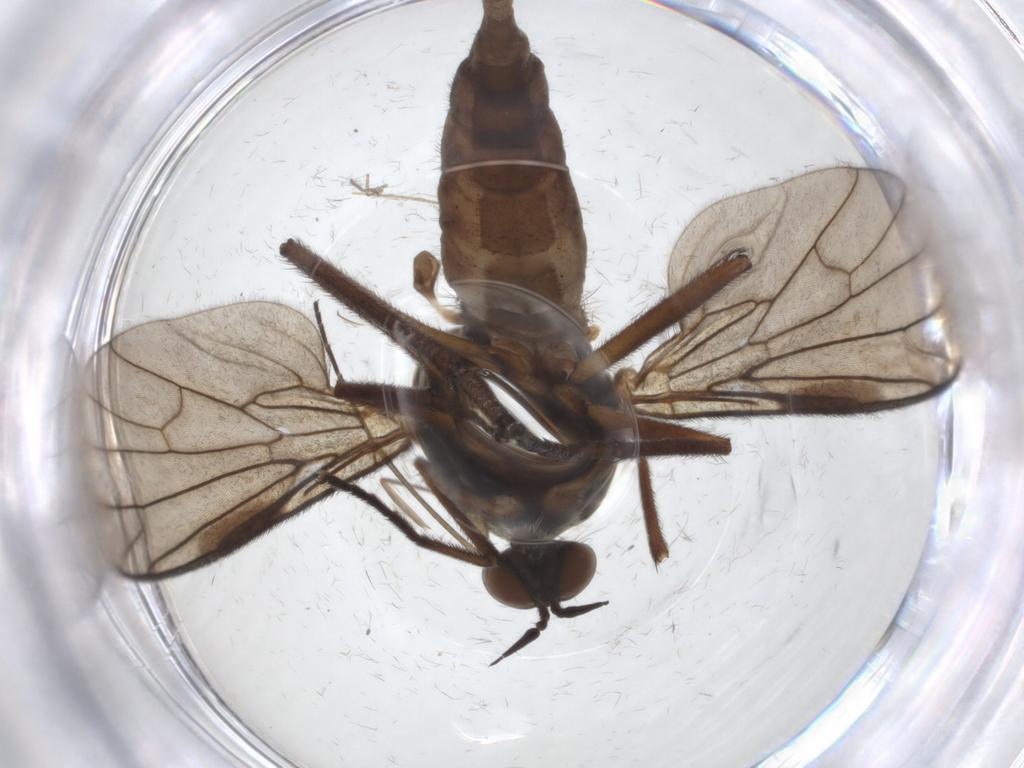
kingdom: Animalia
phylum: Arthropoda
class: Insecta
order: Diptera
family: Empididae
